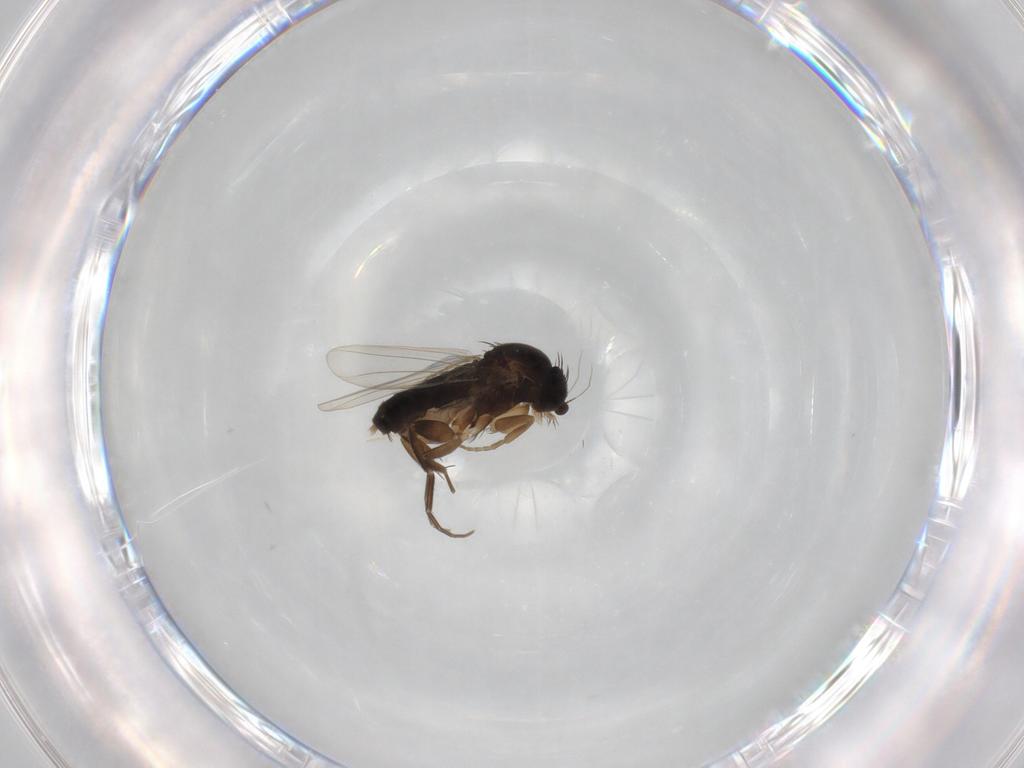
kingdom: Animalia
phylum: Arthropoda
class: Insecta
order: Diptera
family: Phoridae
